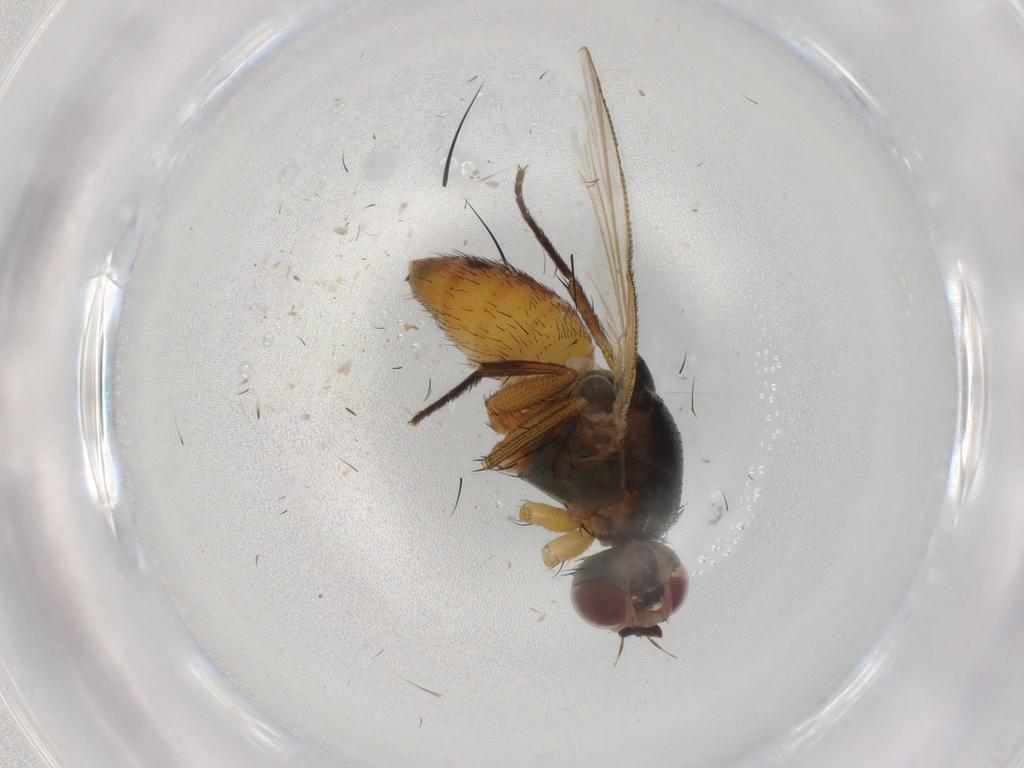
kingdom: Animalia
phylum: Arthropoda
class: Insecta
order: Diptera
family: Muscidae
